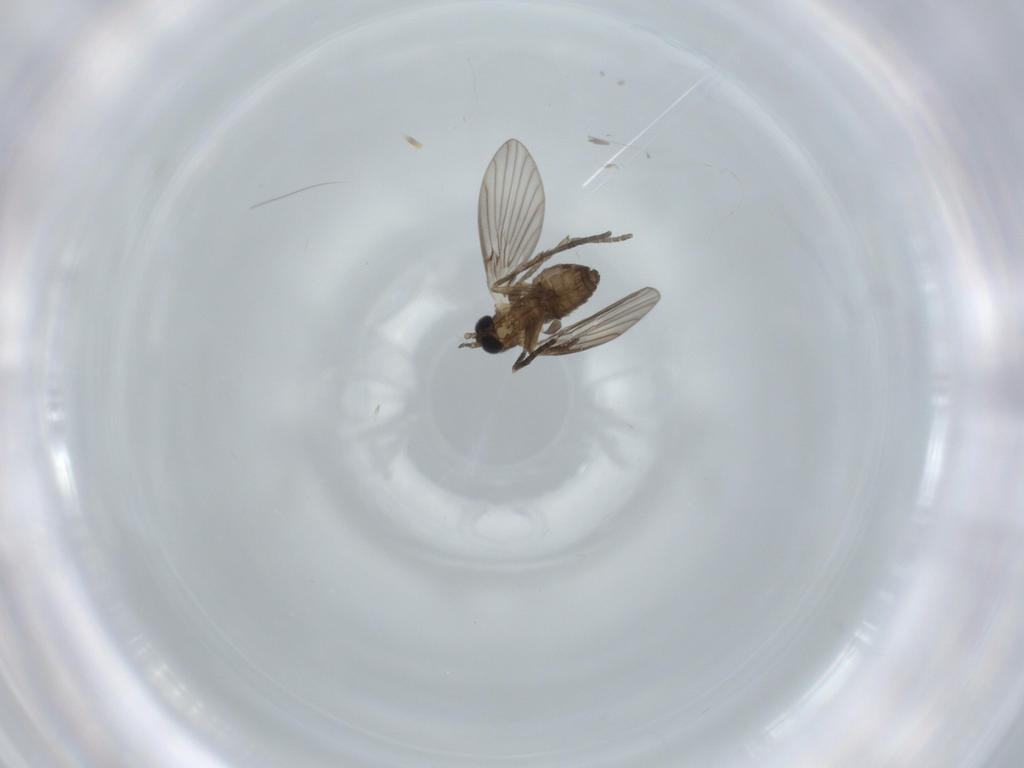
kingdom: Animalia
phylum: Arthropoda
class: Insecta
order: Diptera
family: Psychodidae
